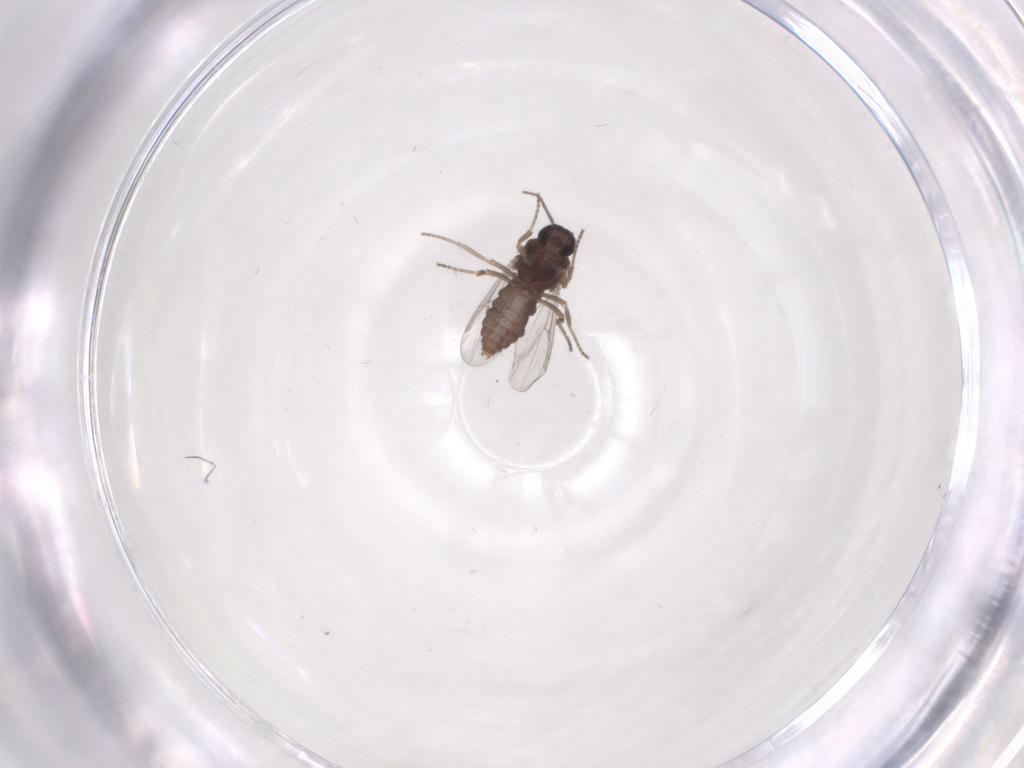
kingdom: Animalia
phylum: Arthropoda
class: Insecta
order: Diptera
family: Ceratopogonidae
